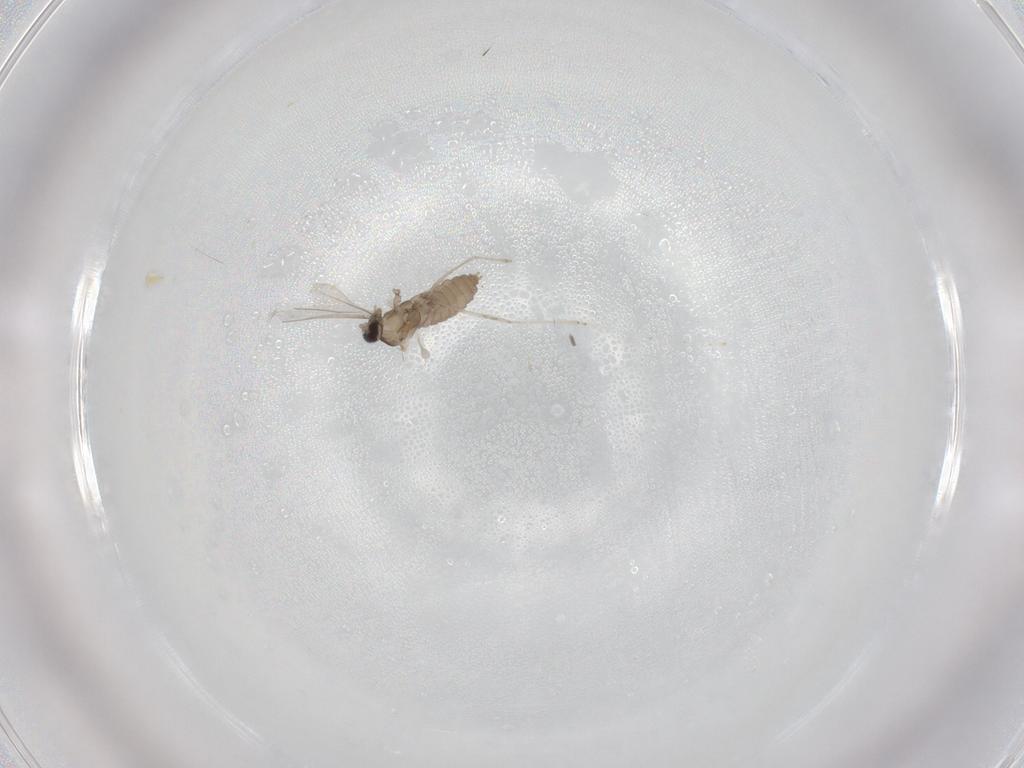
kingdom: Animalia
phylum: Arthropoda
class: Insecta
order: Diptera
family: Cecidomyiidae
